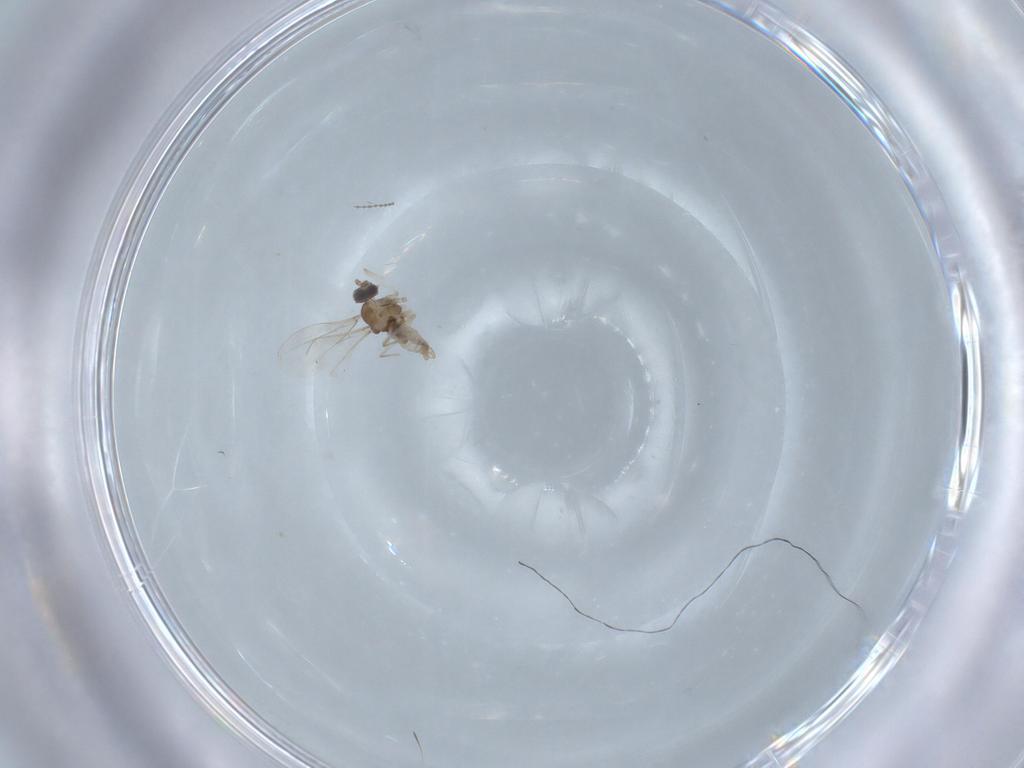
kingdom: Animalia
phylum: Arthropoda
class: Insecta
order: Diptera
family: Cecidomyiidae
